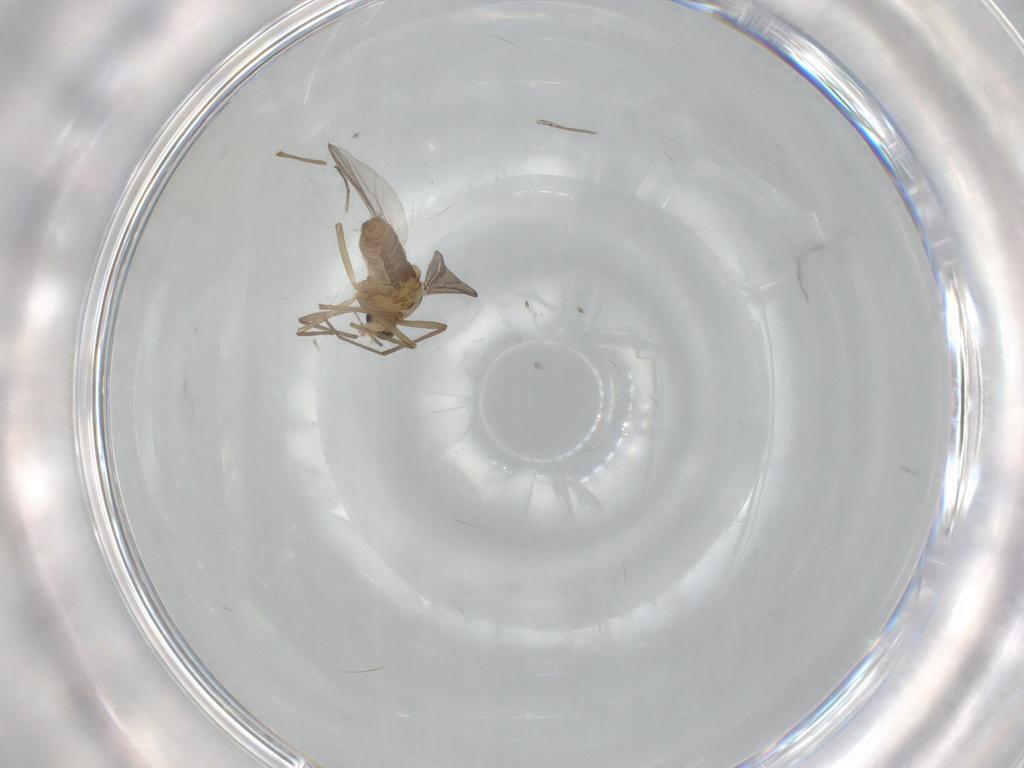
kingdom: Animalia
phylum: Arthropoda
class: Insecta
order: Diptera
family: Chironomidae
